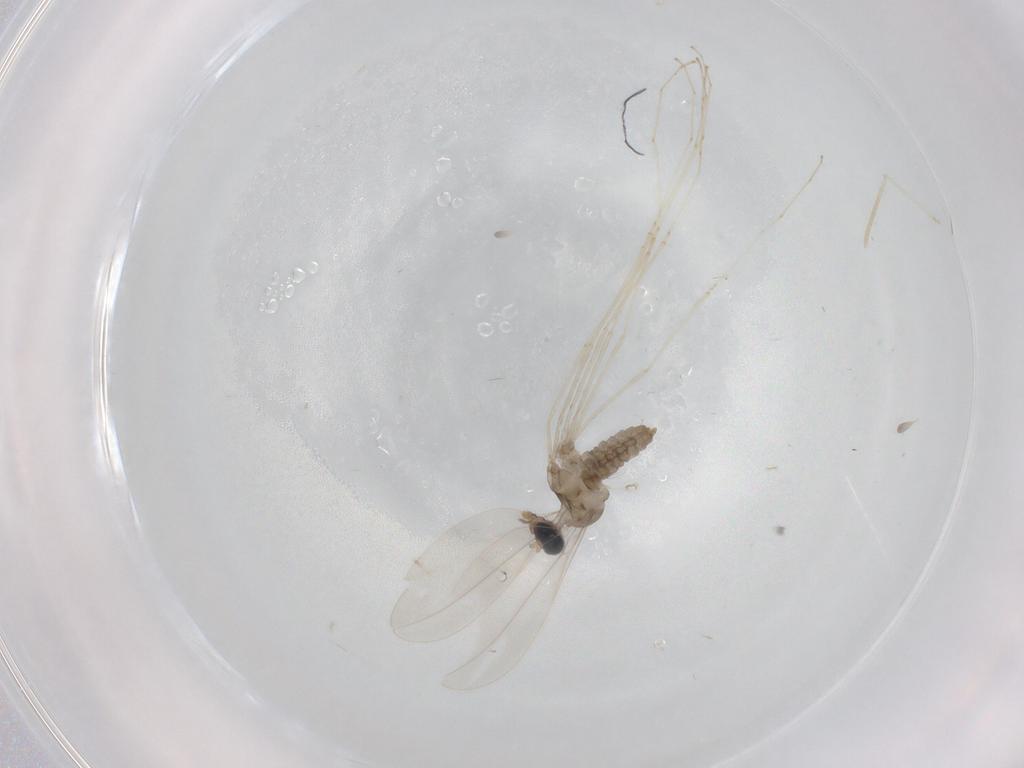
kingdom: Animalia
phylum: Arthropoda
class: Insecta
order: Diptera
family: Cecidomyiidae
